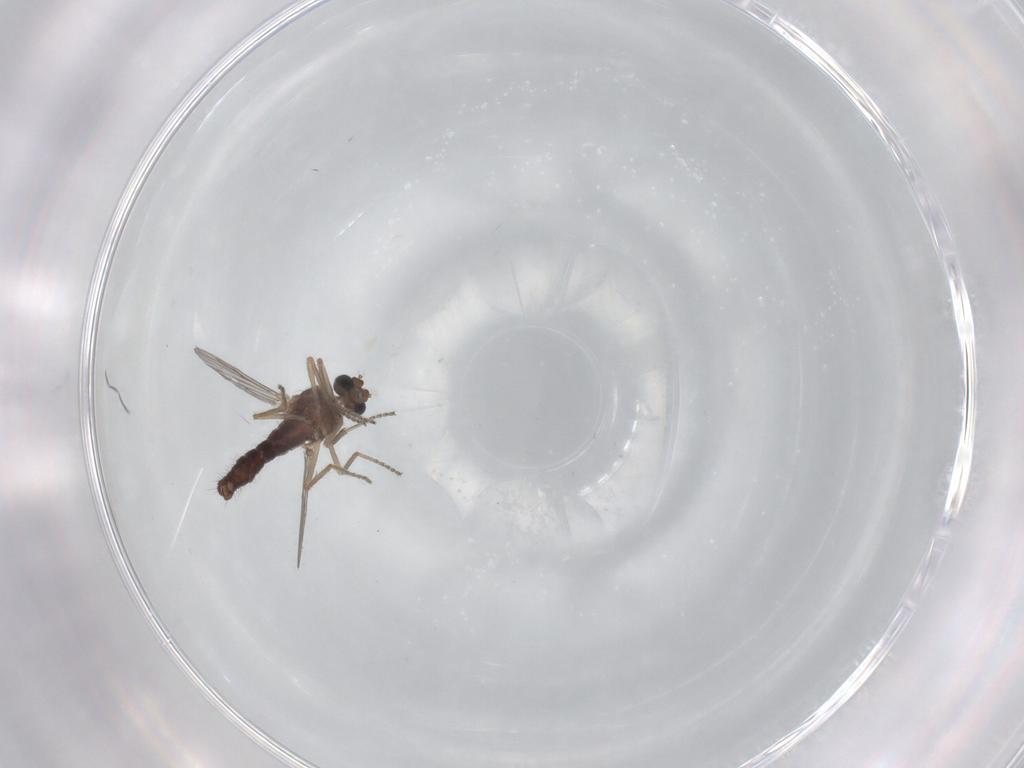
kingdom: Animalia
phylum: Arthropoda
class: Insecta
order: Diptera
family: Ceratopogonidae
